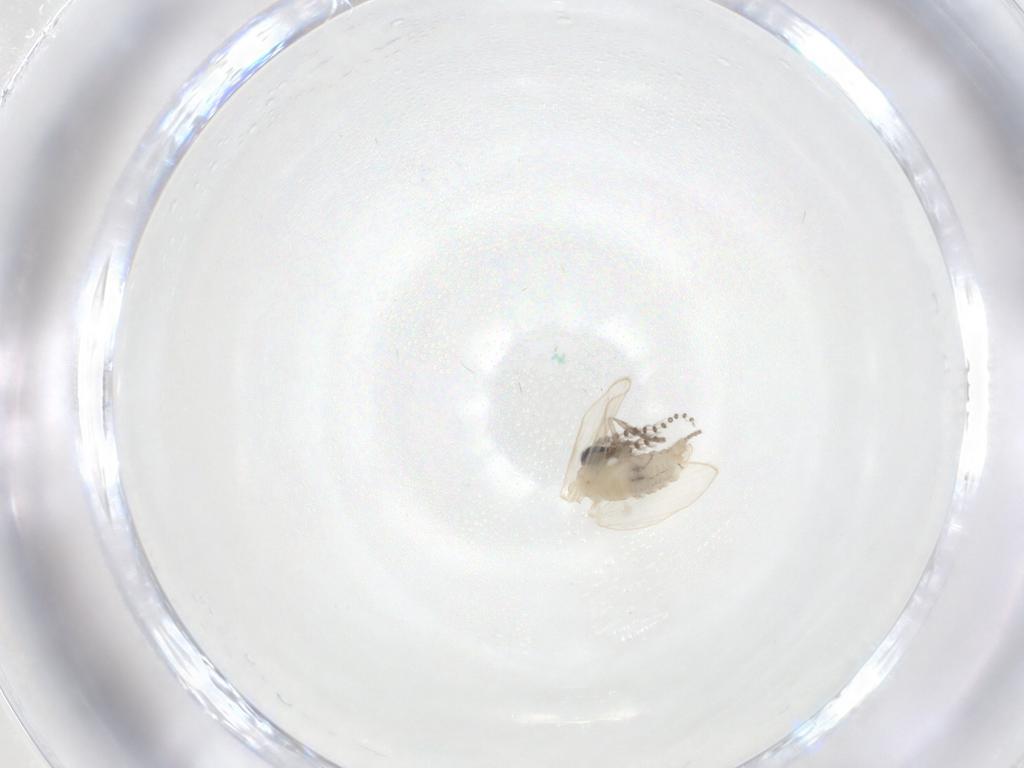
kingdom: Animalia
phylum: Arthropoda
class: Insecta
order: Diptera
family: Psychodidae
